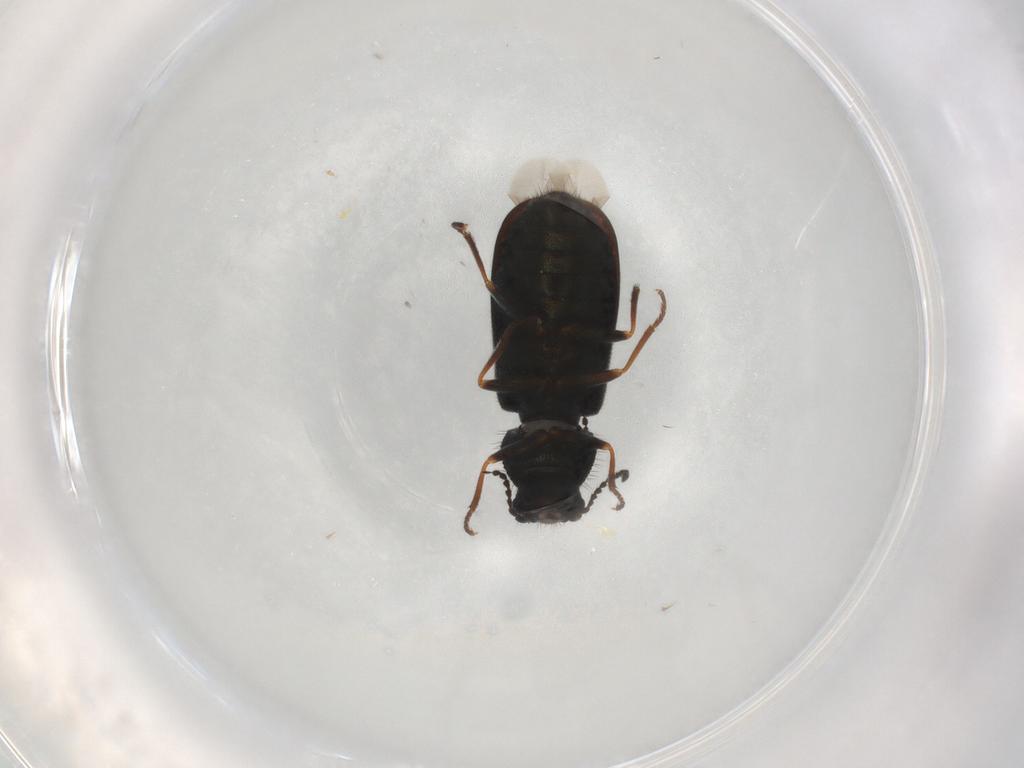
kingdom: Animalia
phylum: Arthropoda
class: Insecta
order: Coleoptera
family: Melyridae
